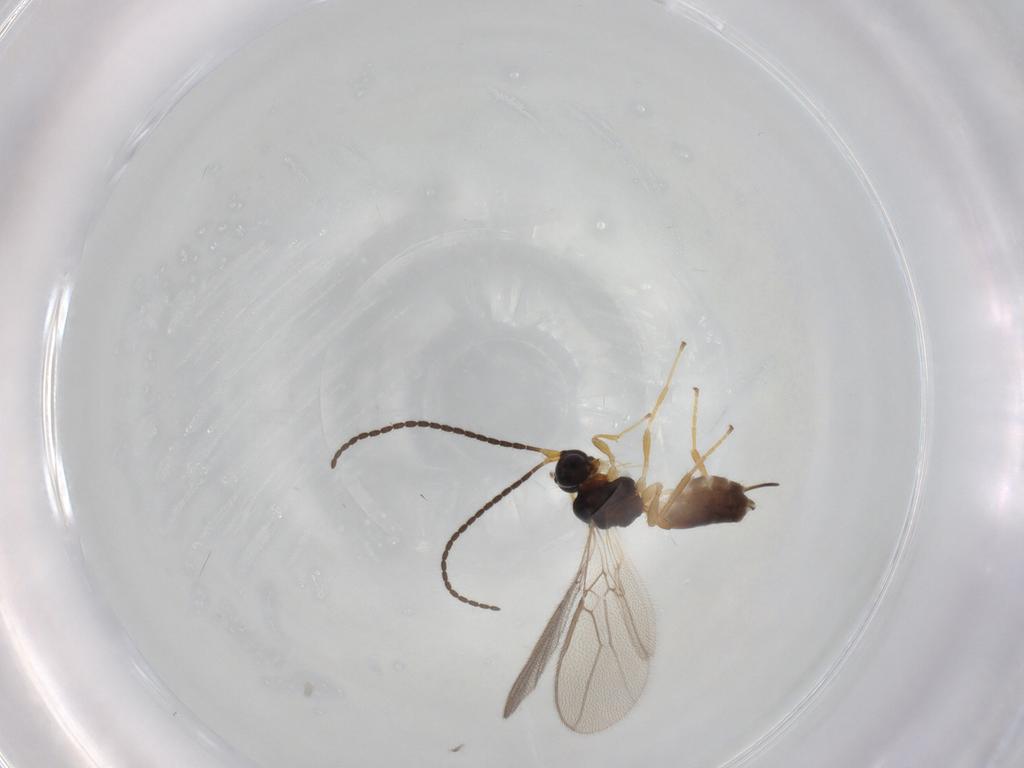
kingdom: Animalia
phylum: Arthropoda
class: Insecta
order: Hymenoptera
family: Braconidae
